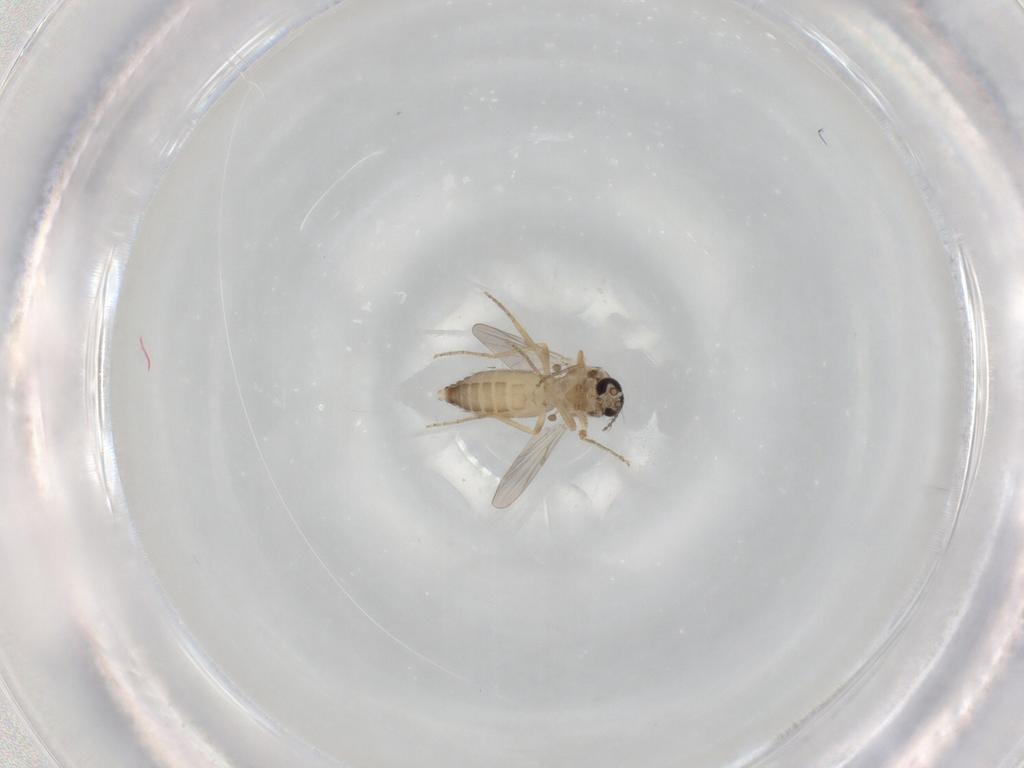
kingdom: Animalia
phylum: Arthropoda
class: Insecta
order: Diptera
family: Ceratopogonidae
